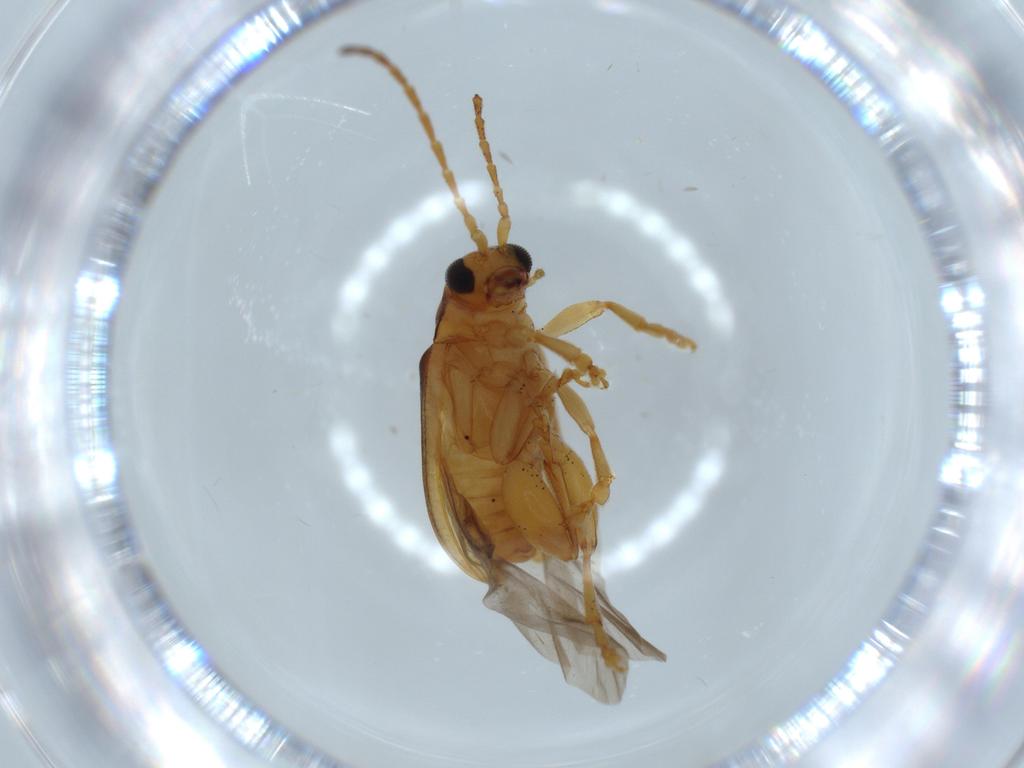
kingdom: Animalia
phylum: Arthropoda
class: Insecta
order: Coleoptera
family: Chrysomelidae
